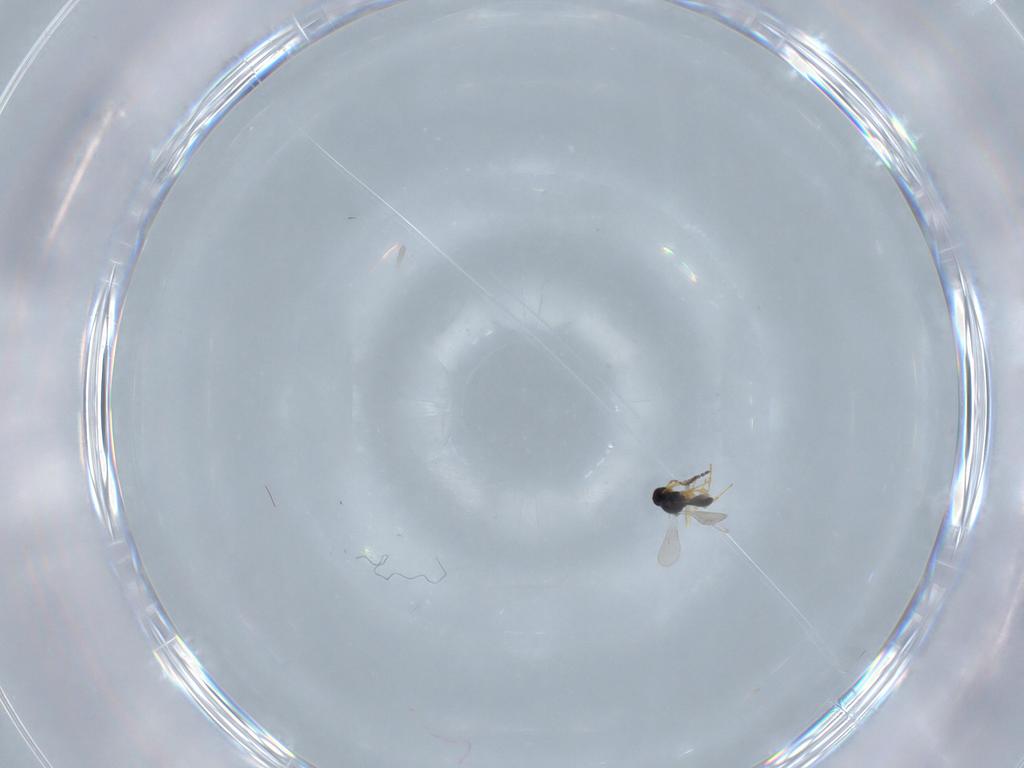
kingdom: Animalia
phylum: Arthropoda
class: Insecta
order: Hymenoptera
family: Platygastridae
